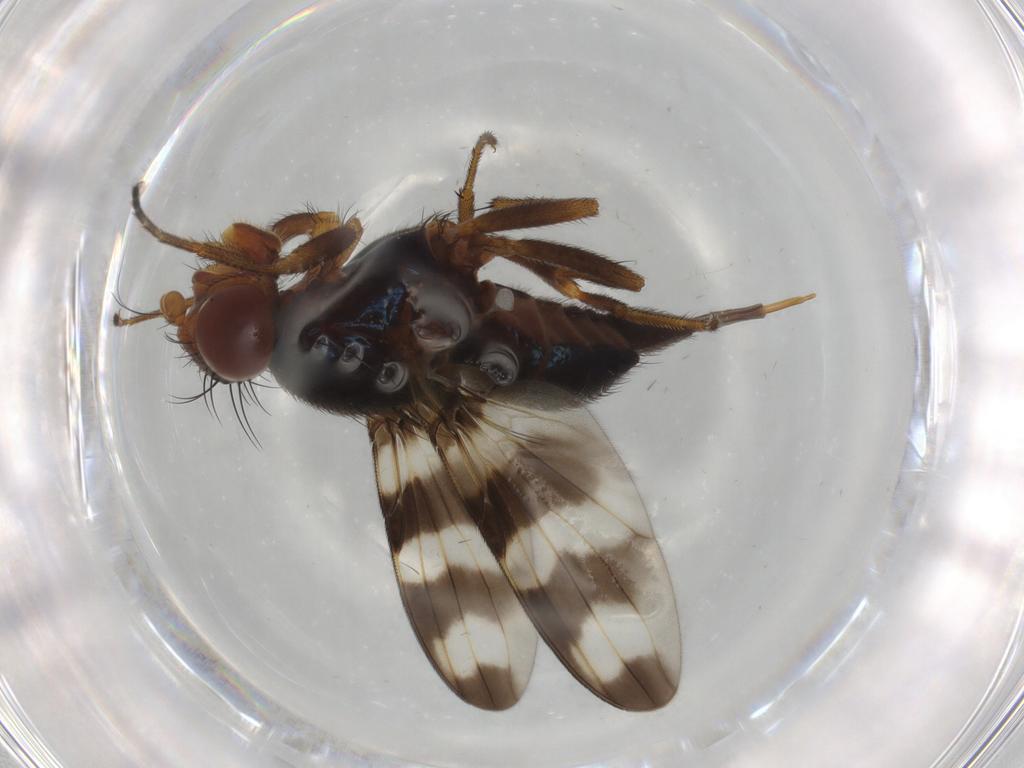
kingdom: Animalia
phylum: Arthropoda
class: Insecta
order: Diptera
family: Ulidiidae
